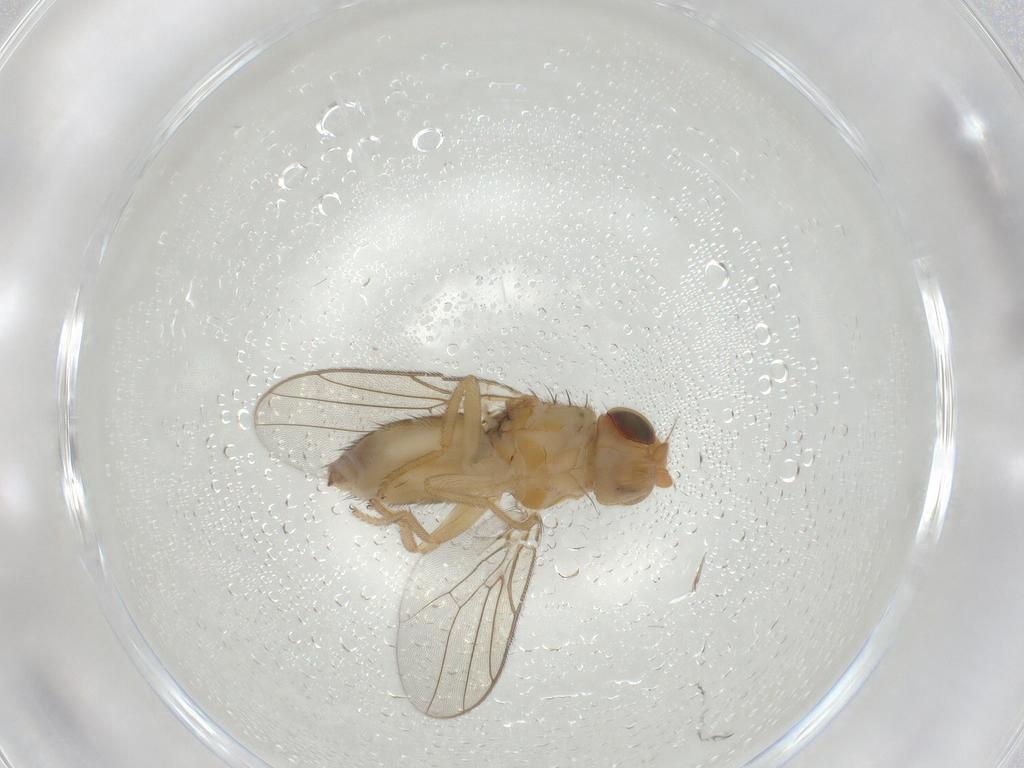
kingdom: Animalia
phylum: Arthropoda
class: Insecta
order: Diptera
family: Chloropidae
